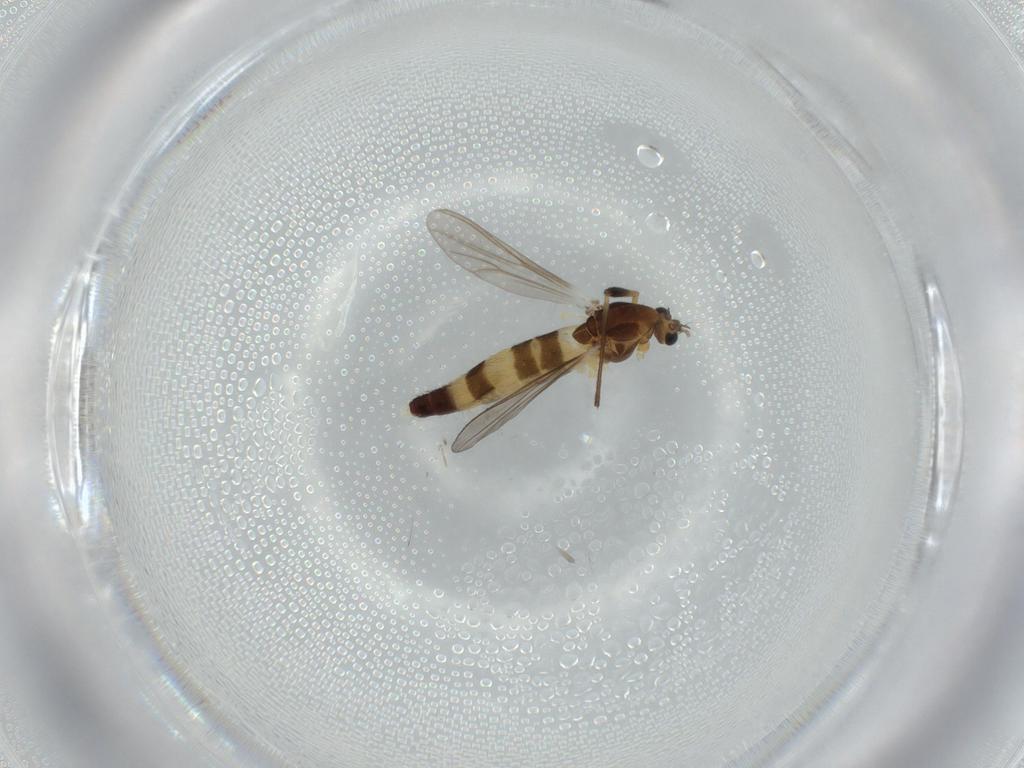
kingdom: Animalia
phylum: Arthropoda
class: Insecta
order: Diptera
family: Chironomidae
